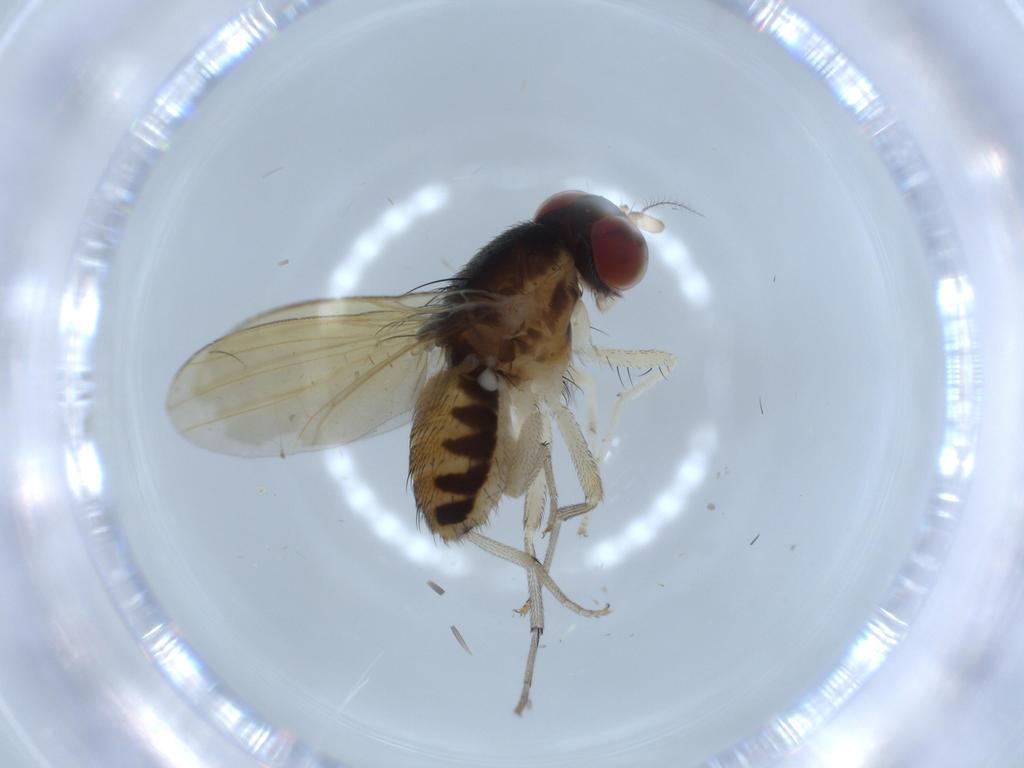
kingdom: Animalia
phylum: Arthropoda
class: Insecta
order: Diptera
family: Sciaridae
